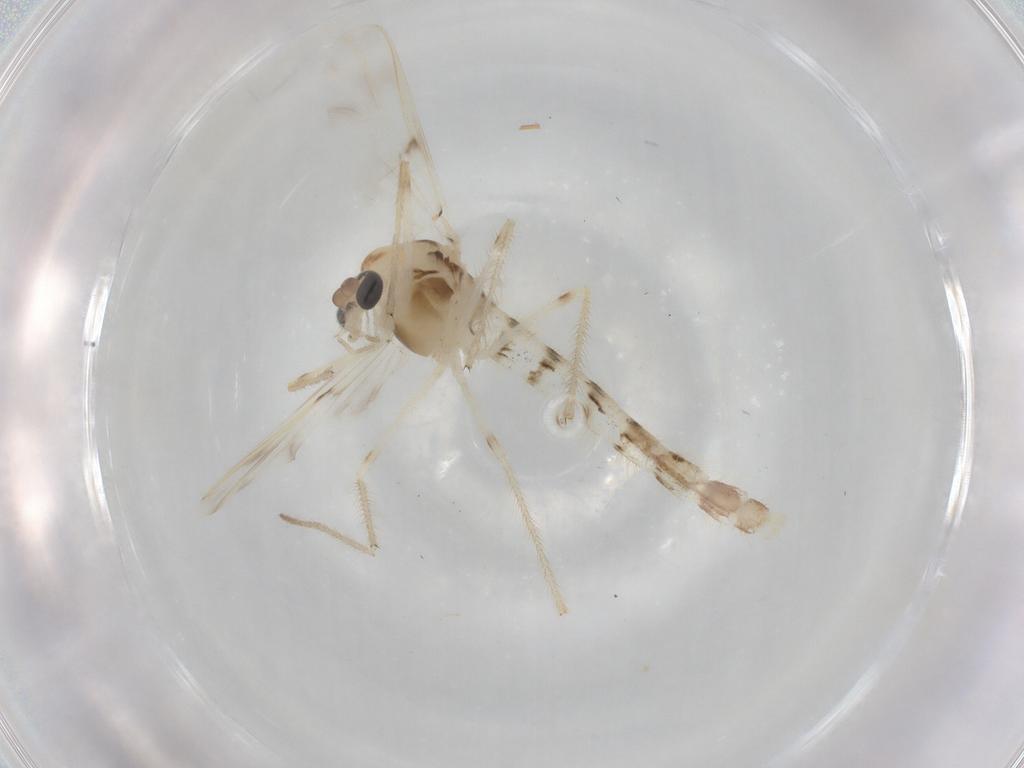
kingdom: Animalia
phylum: Arthropoda
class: Insecta
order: Diptera
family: Chironomidae
